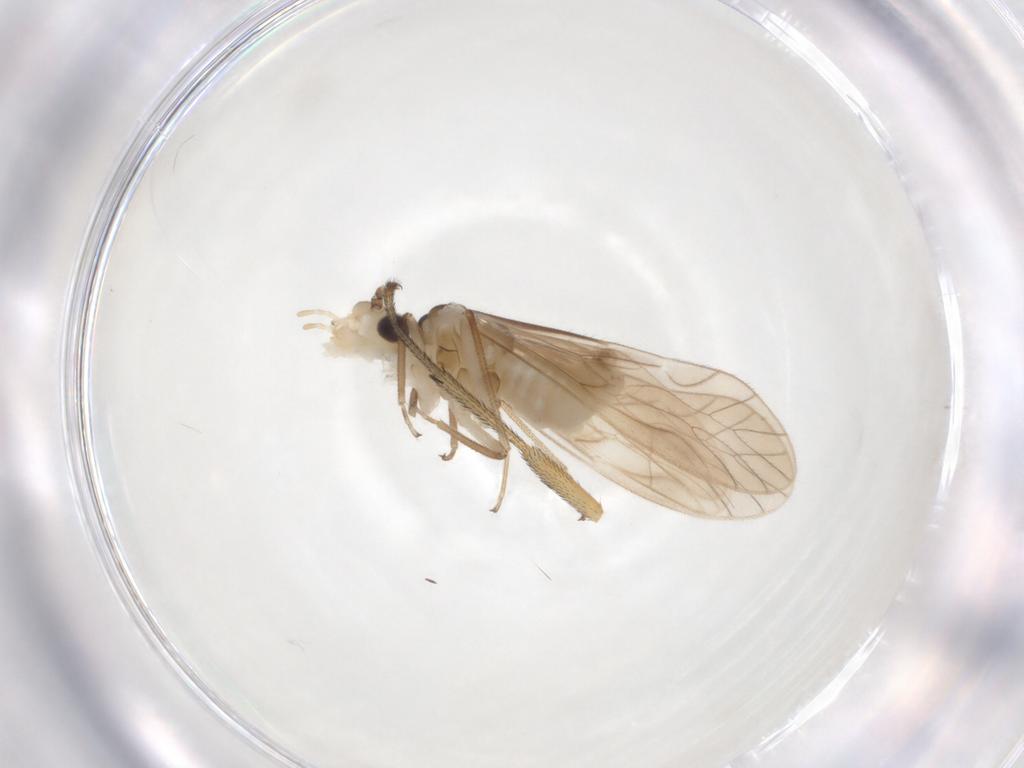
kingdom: Animalia
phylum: Arthropoda
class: Insecta
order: Psocodea
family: Caeciliusidae
